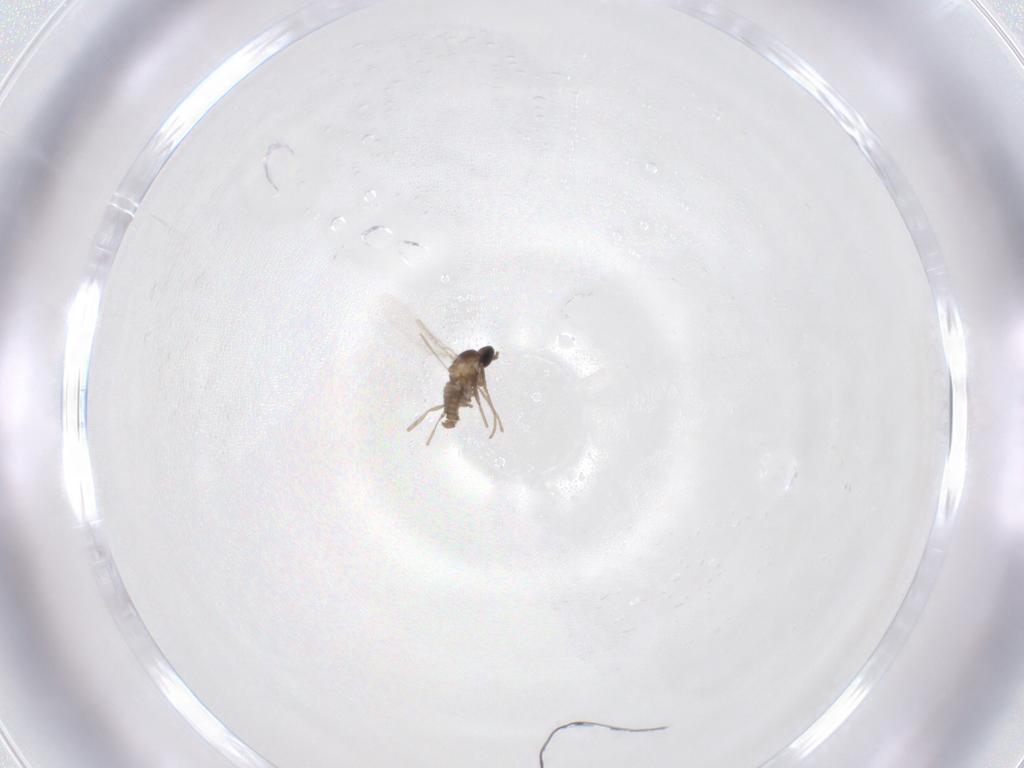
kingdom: Animalia
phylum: Arthropoda
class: Insecta
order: Diptera
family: Cecidomyiidae
